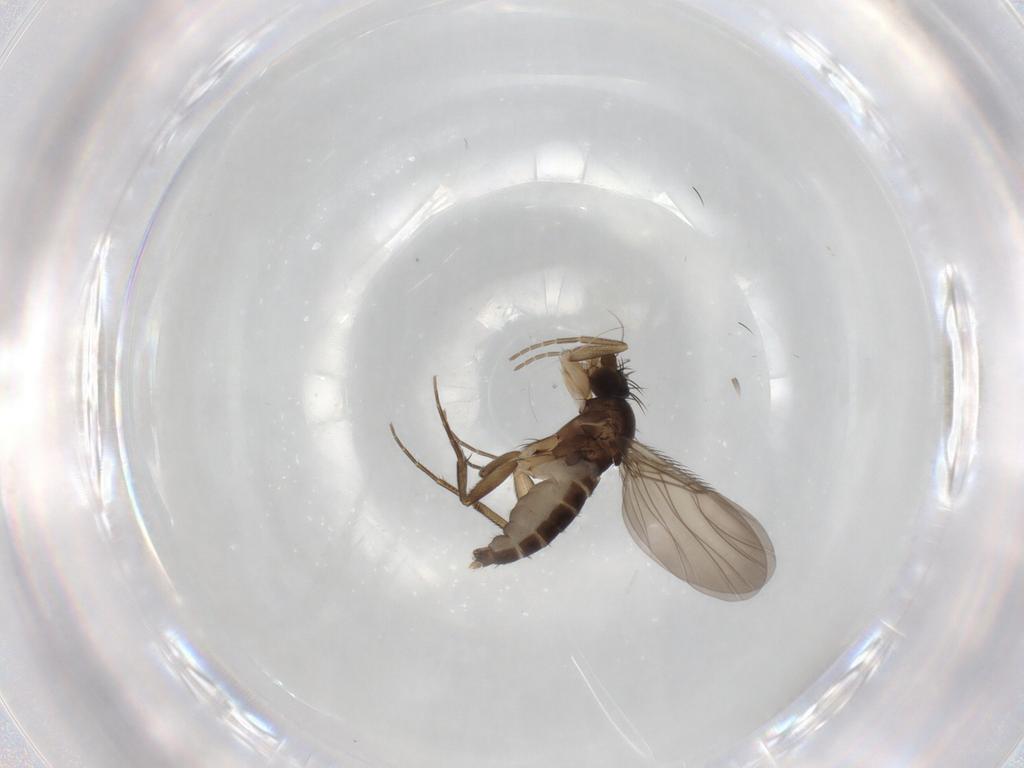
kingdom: Animalia
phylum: Arthropoda
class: Insecta
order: Diptera
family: Phoridae
